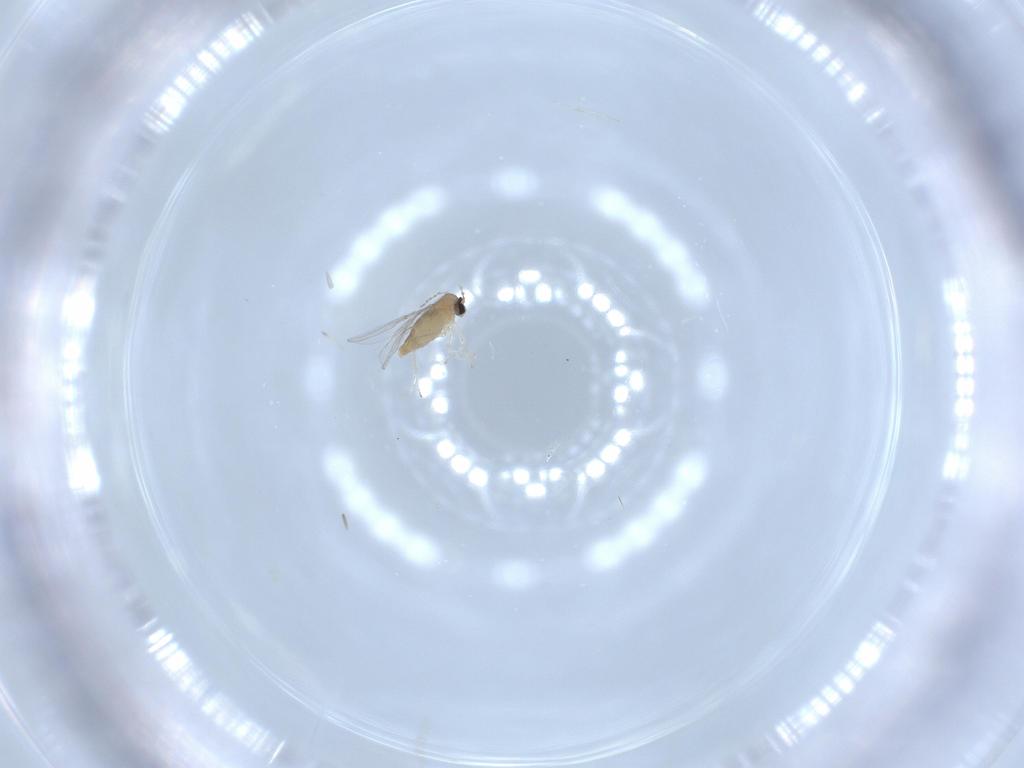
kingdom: Animalia
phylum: Arthropoda
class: Insecta
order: Diptera
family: Cecidomyiidae
